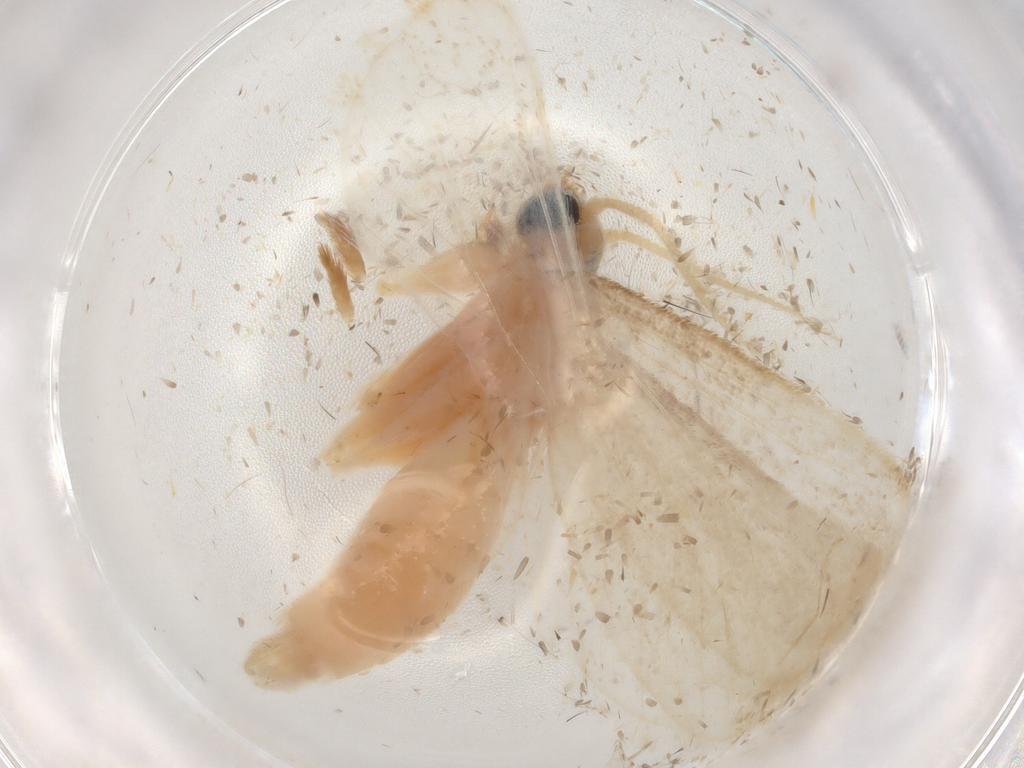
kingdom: Animalia
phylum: Arthropoda
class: Insecta
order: Lepidoptera
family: Crambidae
